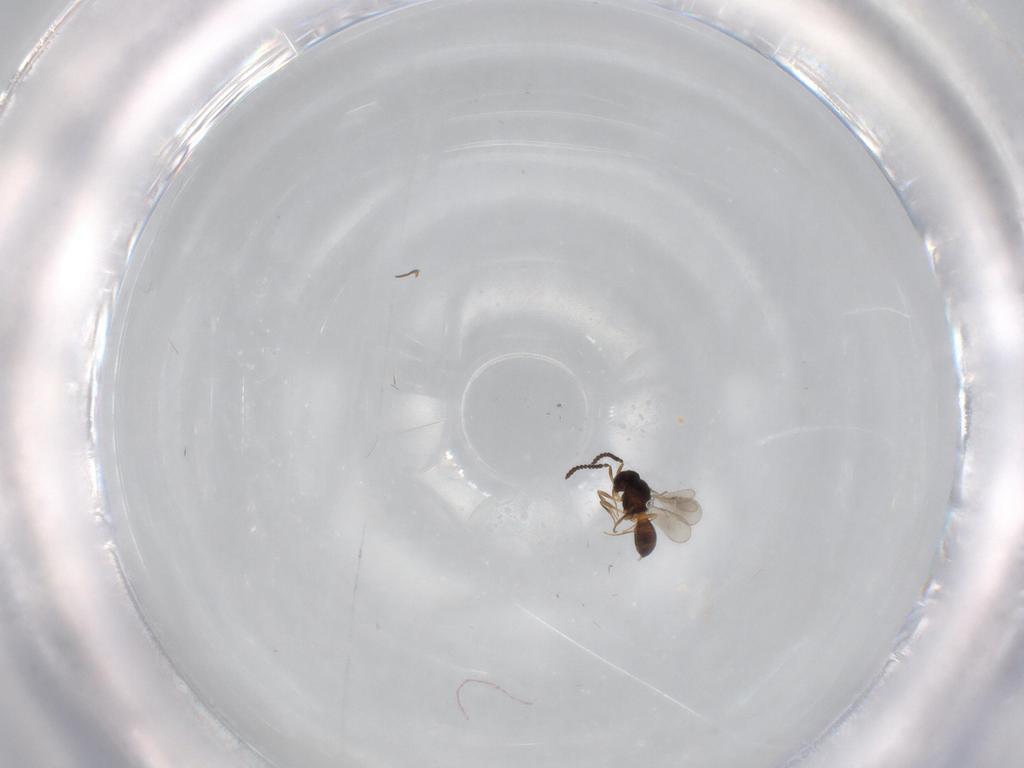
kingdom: Animalia
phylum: Arthropoda
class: Insecta
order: Hymenoptera
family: Scelionidae
